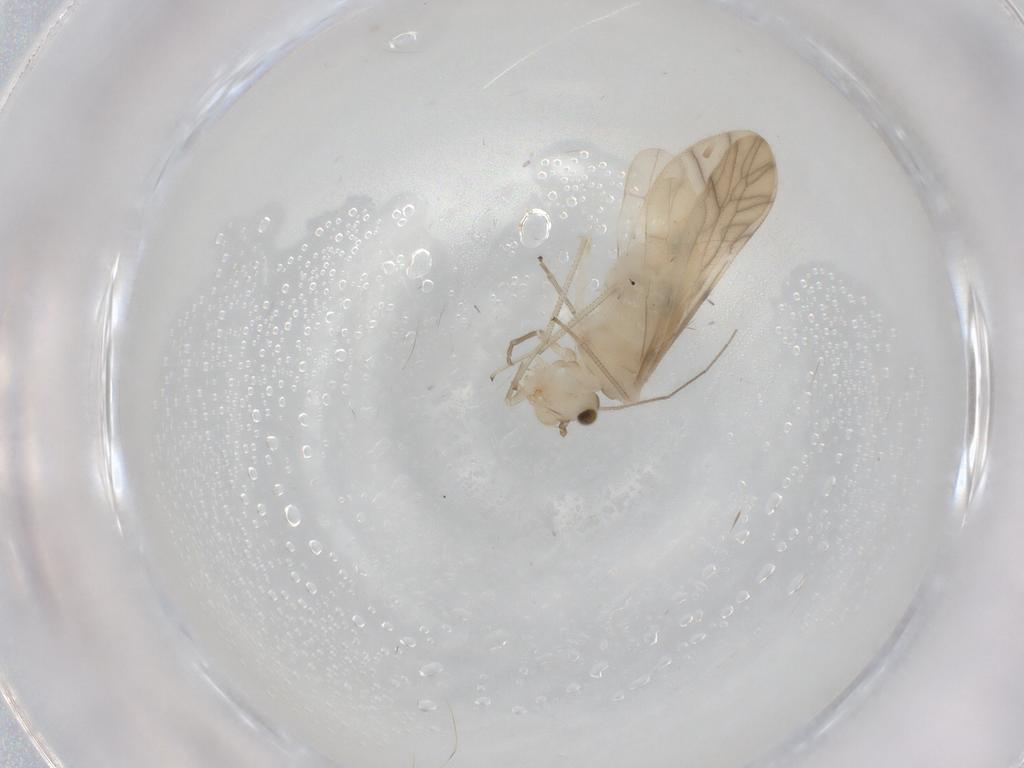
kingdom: Animalia
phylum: Arthropoda
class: Insecta
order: Psocodea
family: Caeciliusidae
